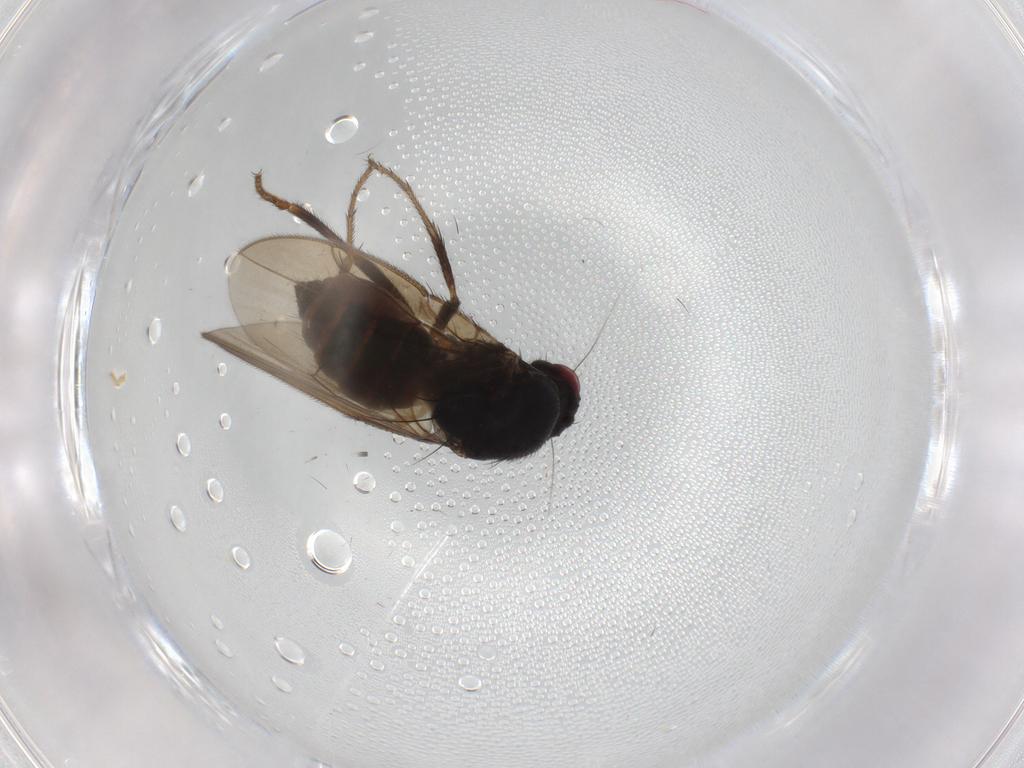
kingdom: Animalia
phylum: Arthropoda
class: Insecta
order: Diptera
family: Sphaeroceridae
